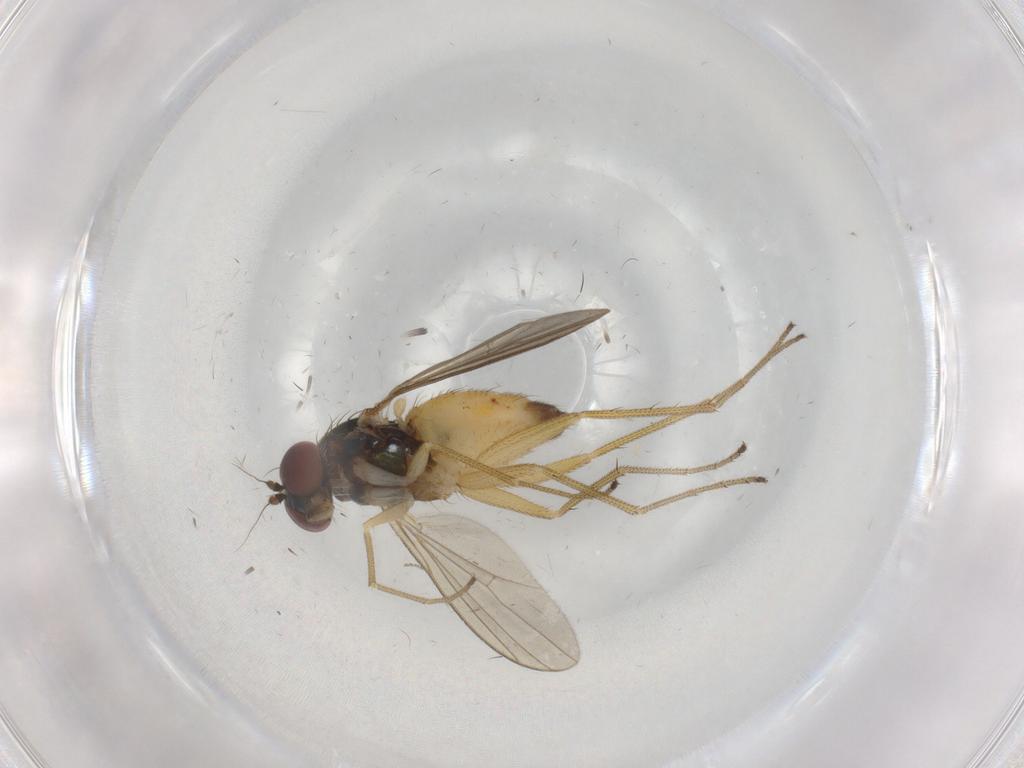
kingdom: Animalia
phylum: Arthropoda
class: Insecta
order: Diptera
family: Dolichopodidae
